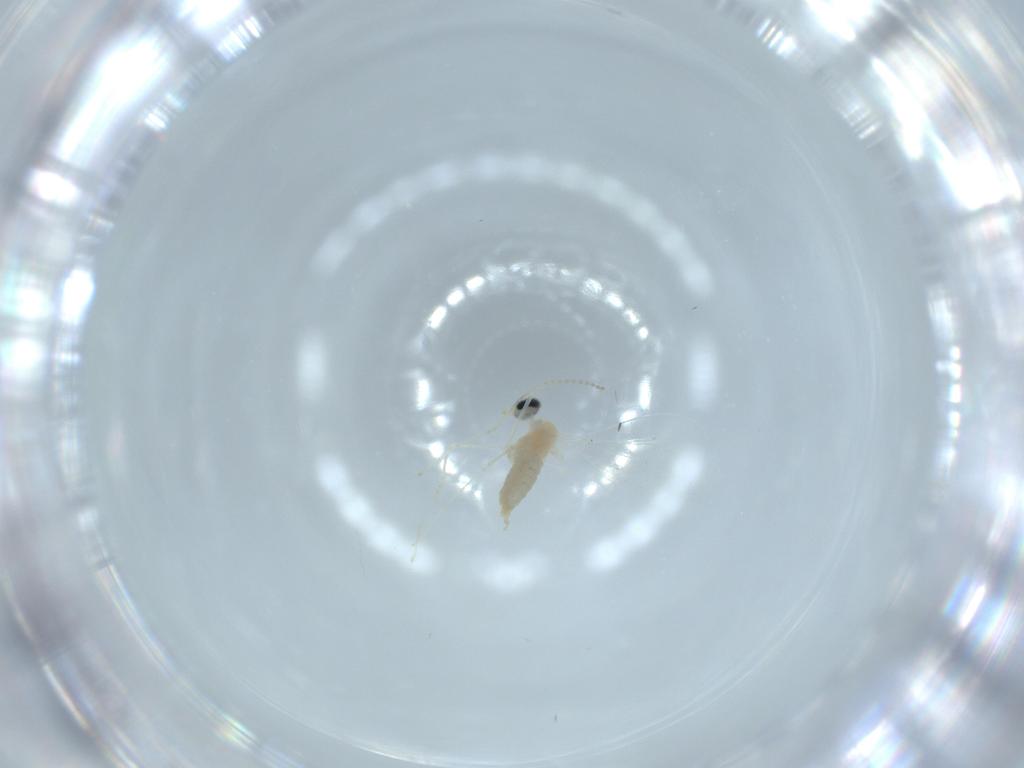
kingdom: Animalia
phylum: Arthropoda
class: Insecta
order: Diptera
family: Cecidomyiidae
